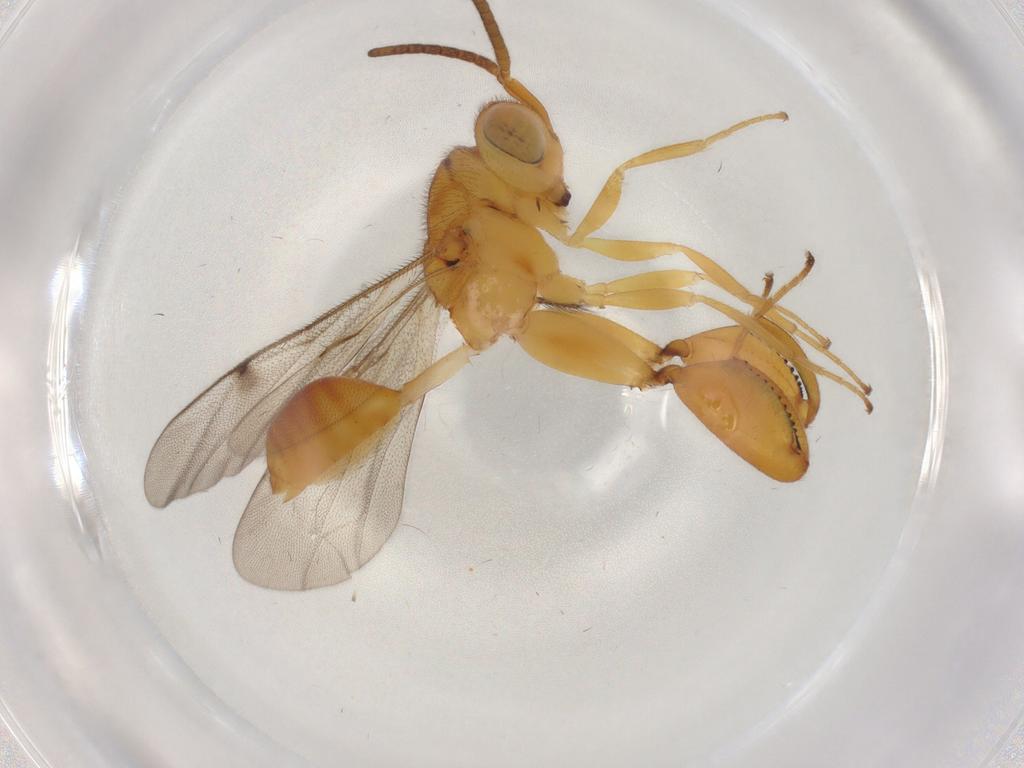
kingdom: Animalia
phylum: Arthropoda
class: Insecta
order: Hymenoptera
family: Chalcididae
